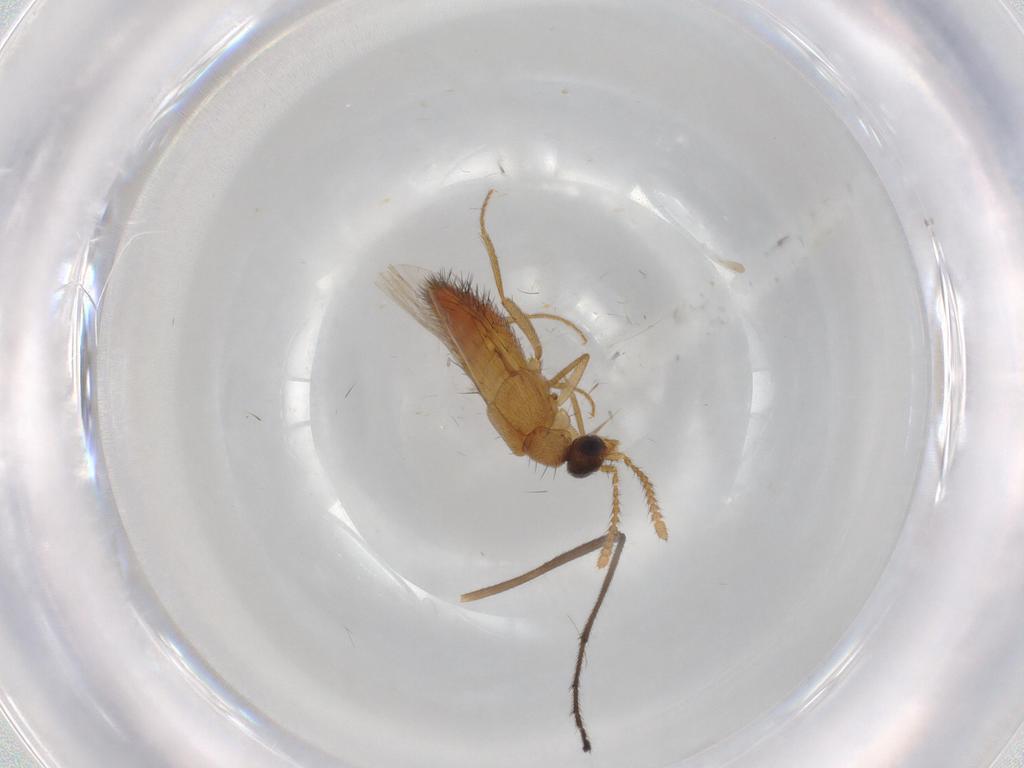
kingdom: Animalia
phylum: Arthropoda
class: Insecta
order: Coleoptera
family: Staphylinidae
